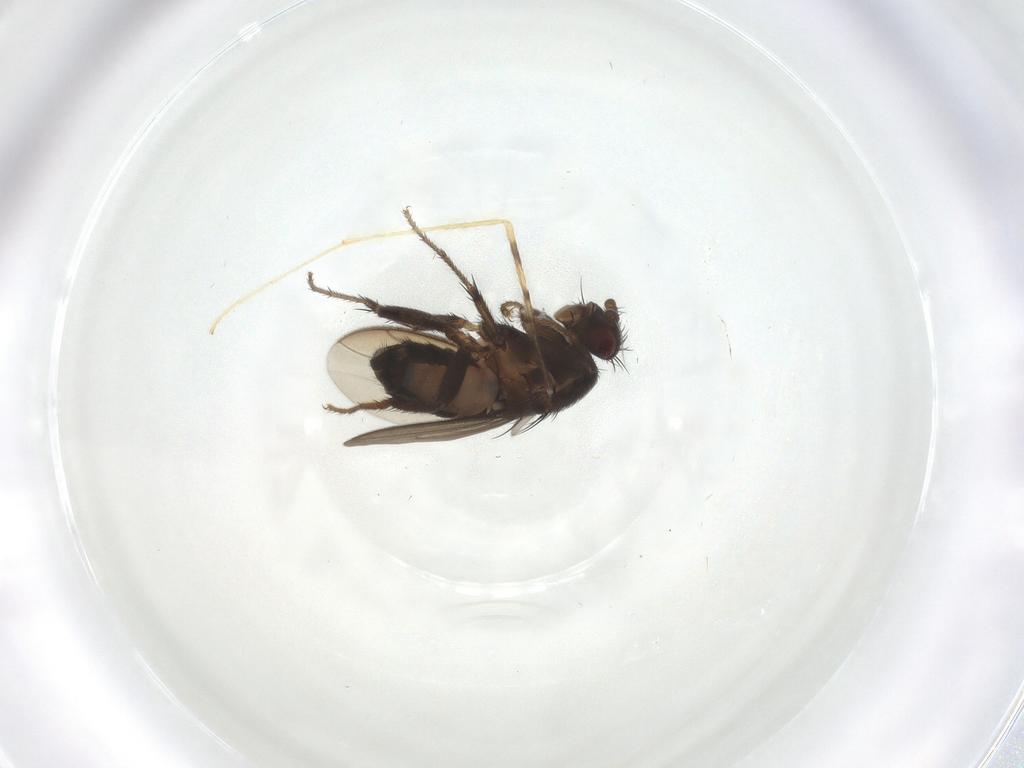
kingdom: Animalia
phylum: Arthropoda
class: Insecta
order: Diptera
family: Sphaeroceridae
